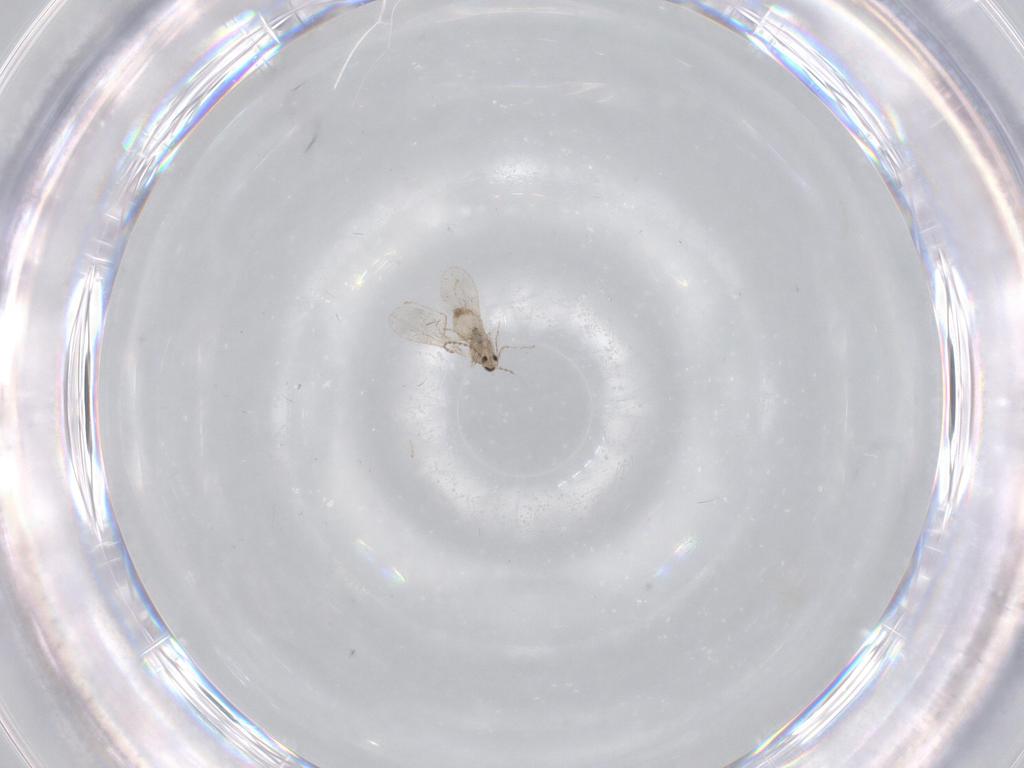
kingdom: Animalia
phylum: Arthropoda
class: Insecta
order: Diptera
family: Cecidomyiidae
